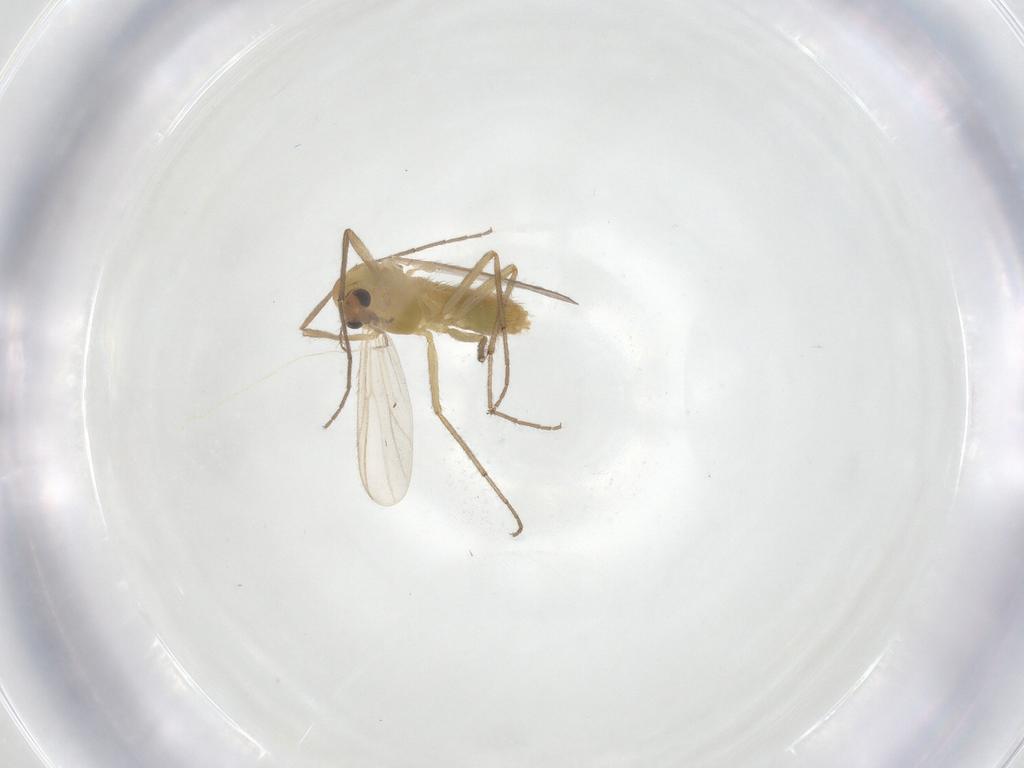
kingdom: Animalia
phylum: Arthropoda
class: Insecta
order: Diptera
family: Chironomidae
